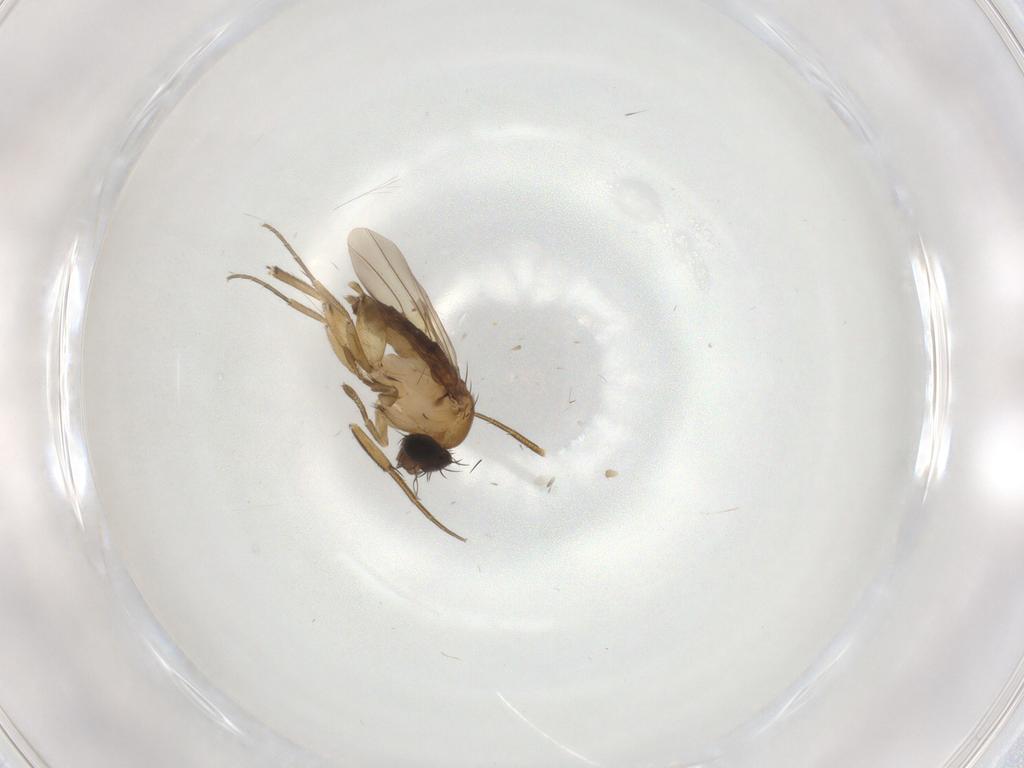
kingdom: Animalia
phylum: Arthropoda
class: Insecta
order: Diptera
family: Phoridae
